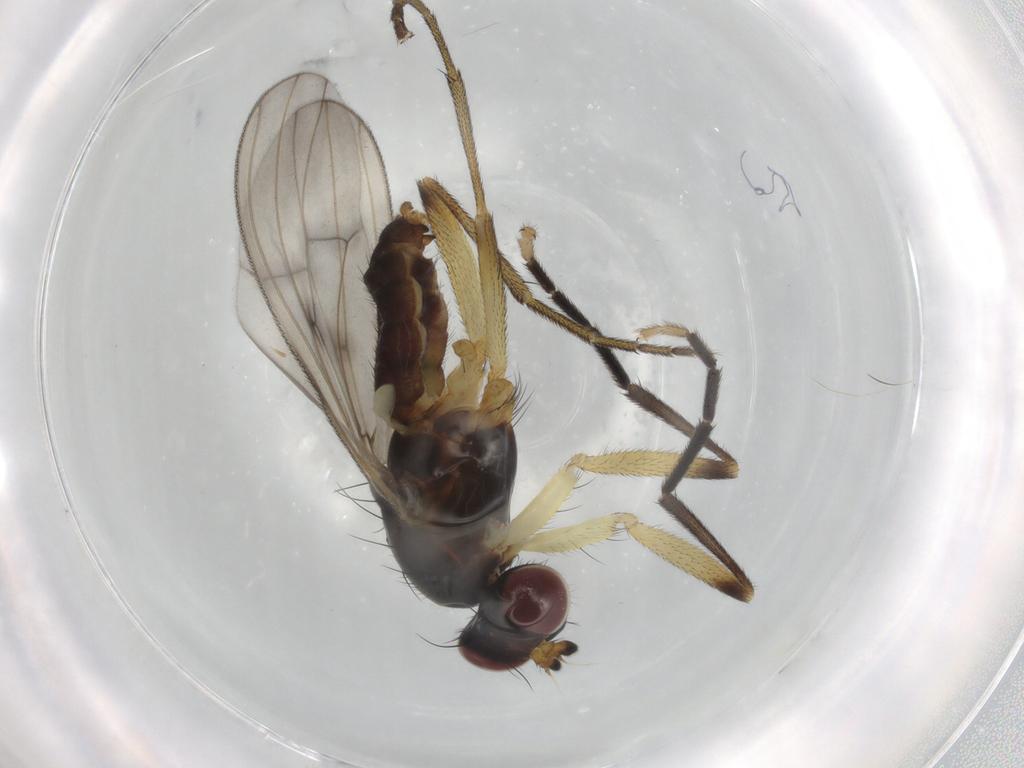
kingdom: Animalia
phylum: Arthropoda
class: Insecta
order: Diptera
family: Sciomyzidae
